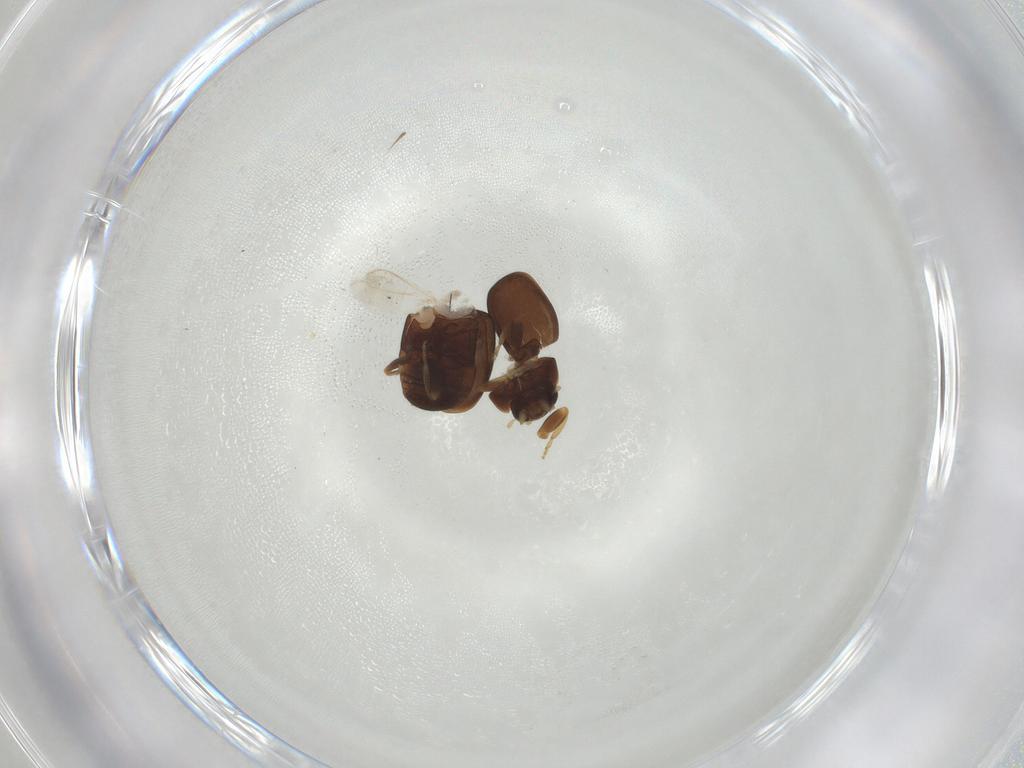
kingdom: Animalia
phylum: Arthropoda
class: Insecta
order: Coleoptera
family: Coccinellidae
